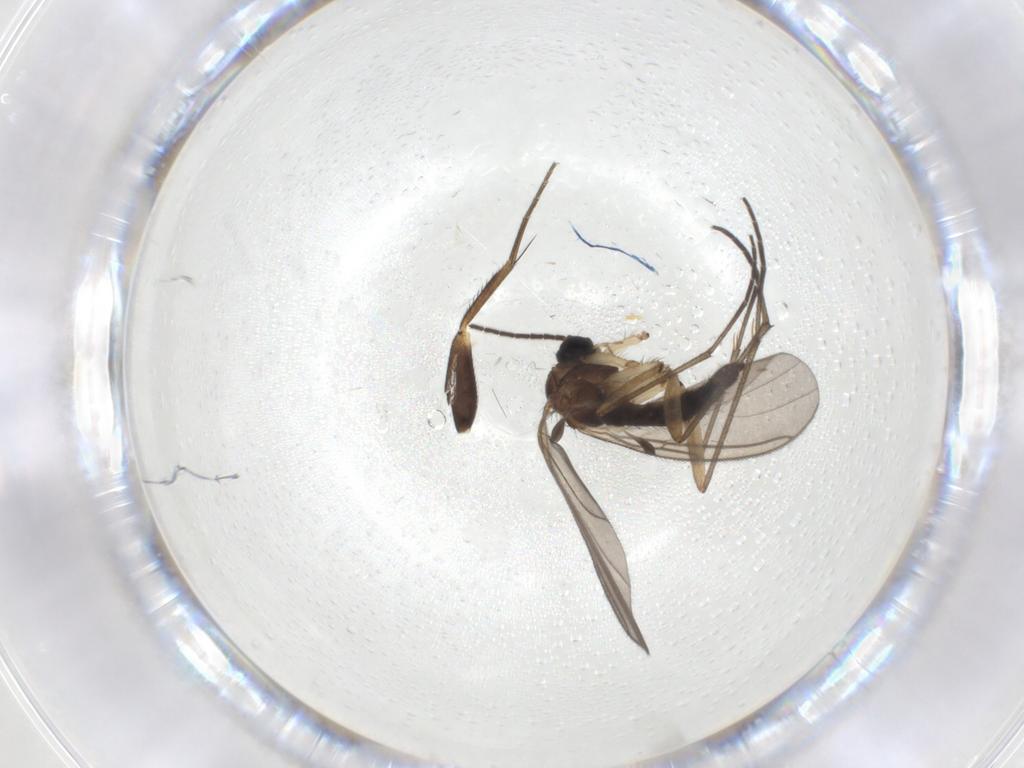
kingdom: Animalia
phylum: Arthropoda
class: Insecta
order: Diptera
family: Sciaridae
